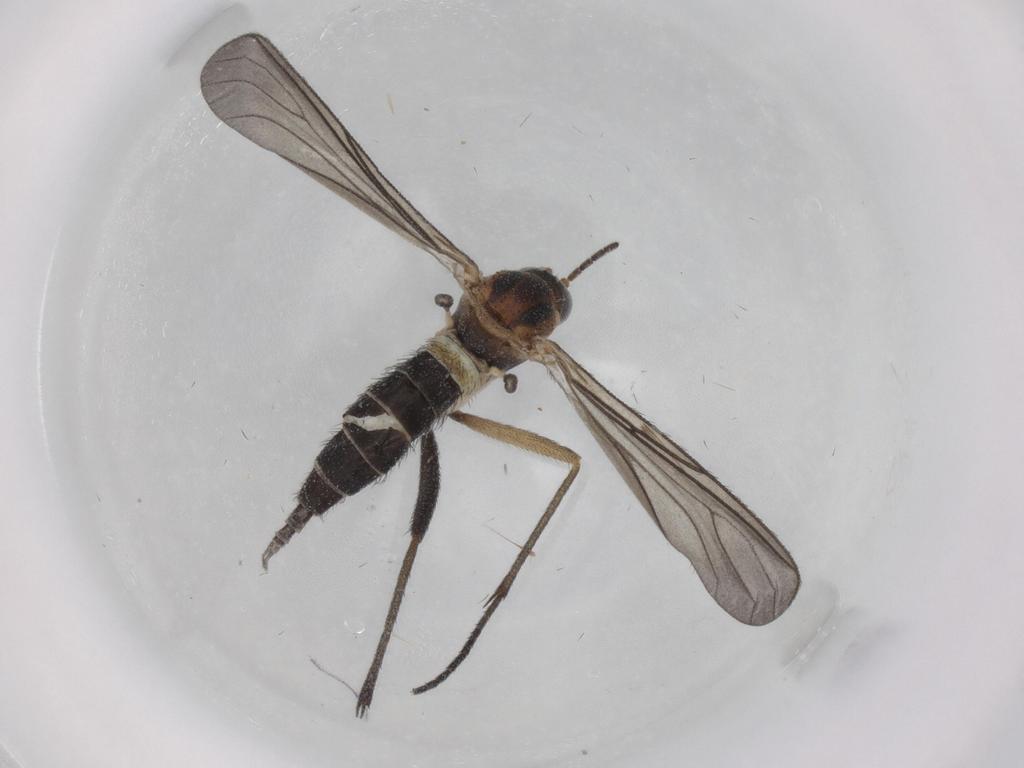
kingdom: Animalia
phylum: Arthropoda
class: Insecta
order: Diptera
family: Sciaridae
